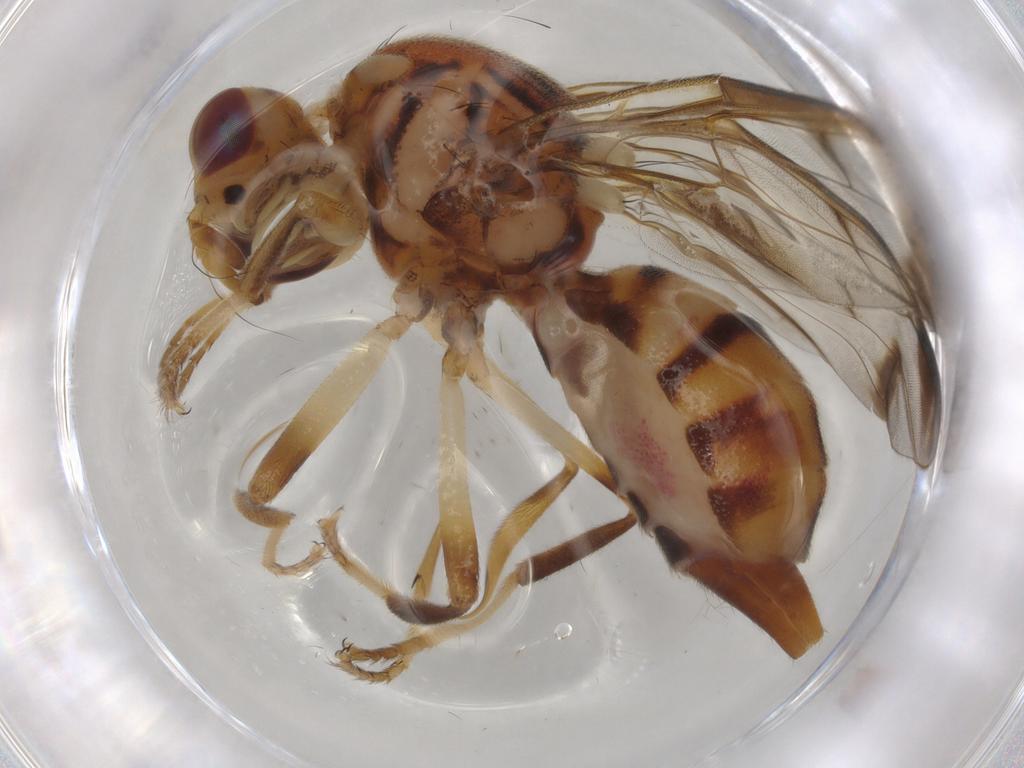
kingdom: Animalia
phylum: Arthropoda
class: Insecta
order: Diptera
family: Tephritidae
